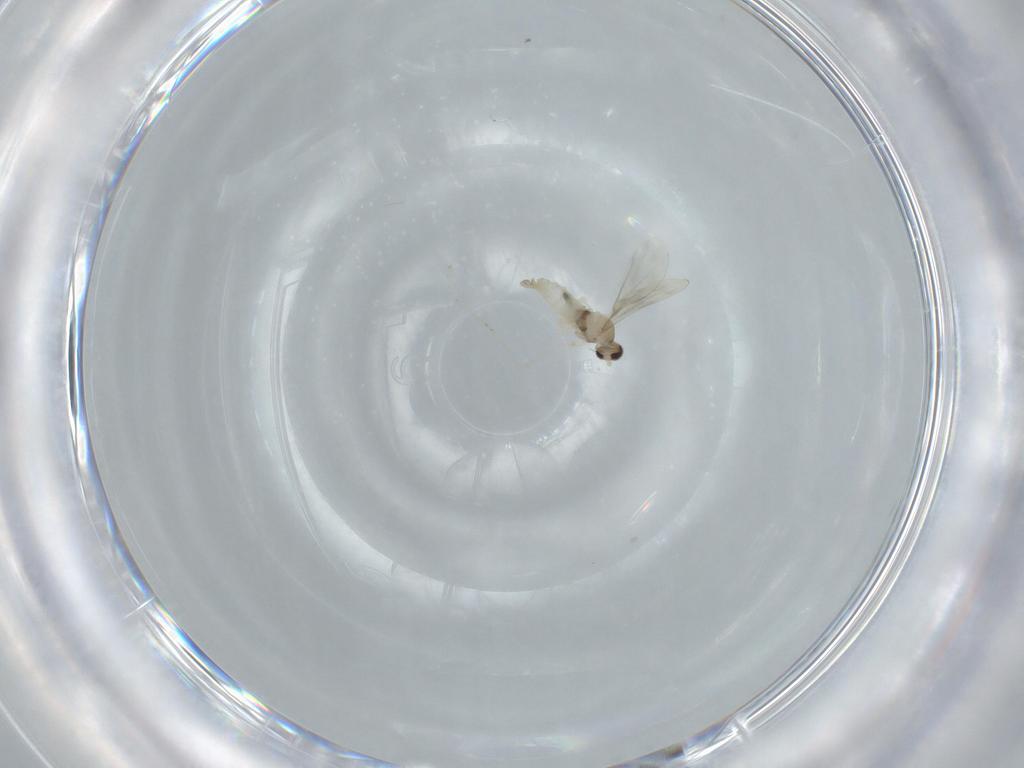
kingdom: Animalia
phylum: Arthropoda
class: Insecta
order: Diptera
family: Cecidomyiidae
